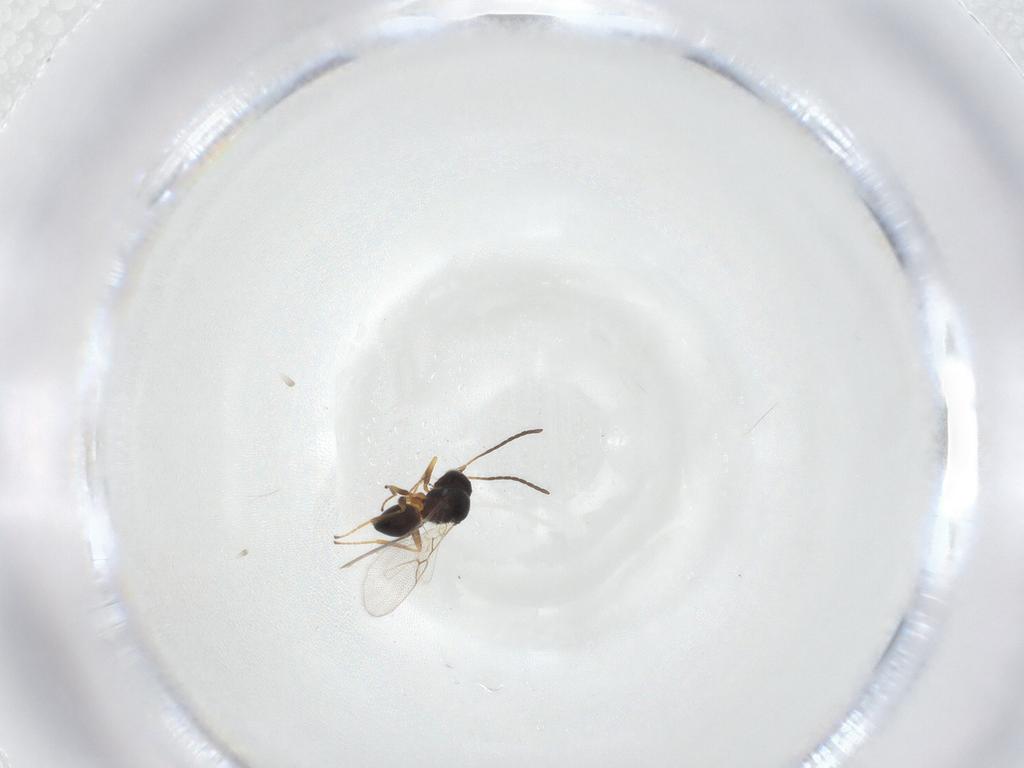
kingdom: Animalia
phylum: Arthropoda
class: Insecta
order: Hymenoptera
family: Figitidae
